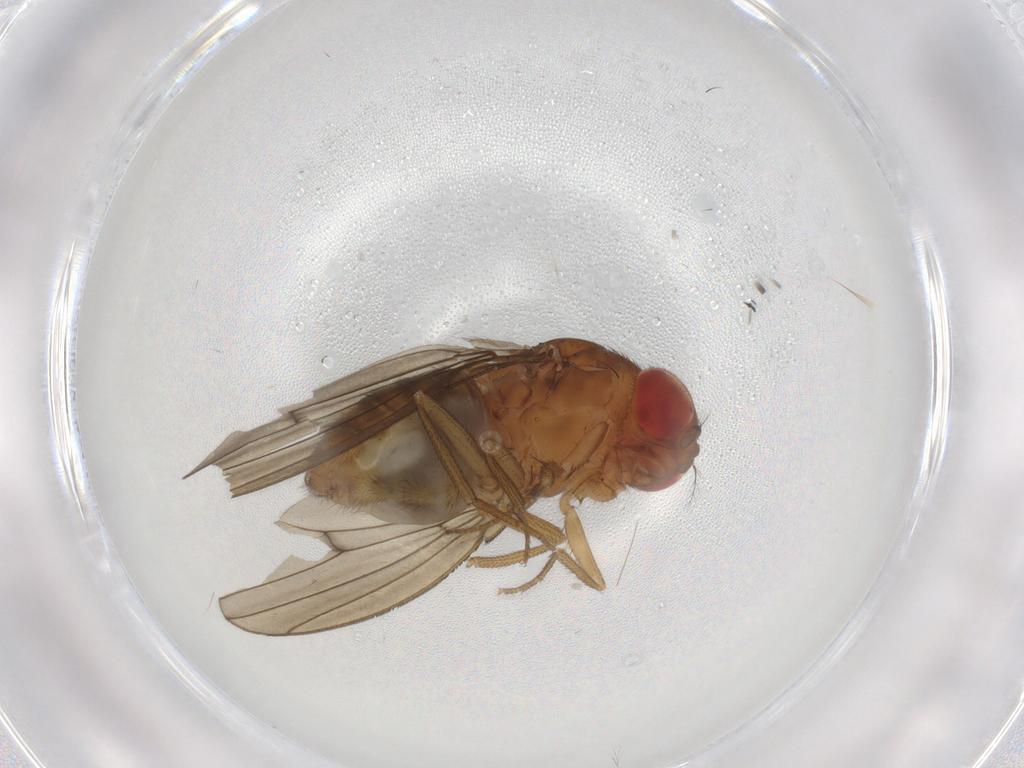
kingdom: Animalia
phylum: Arthropoda
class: Insecta
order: Diptera
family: Drosophilidae
